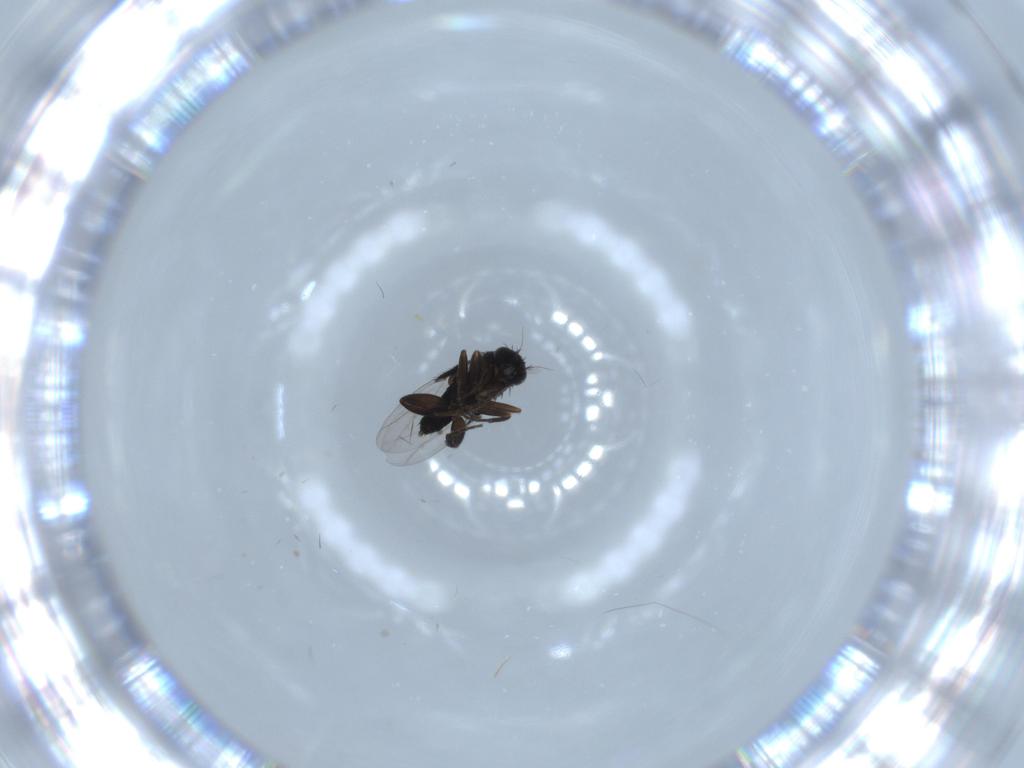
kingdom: Animalia
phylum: Arthropoda
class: Insecta
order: Diptera
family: Phoridae
